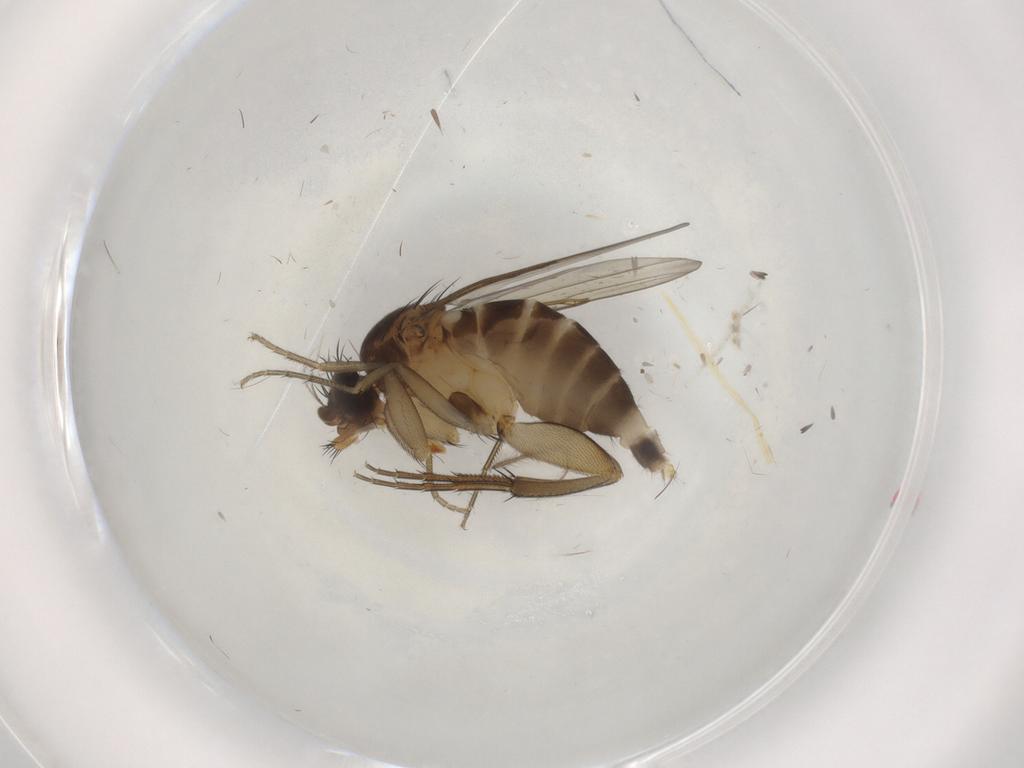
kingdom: Animalia
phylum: Arthropoda
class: Insecta
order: Diptera
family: Phoridae
